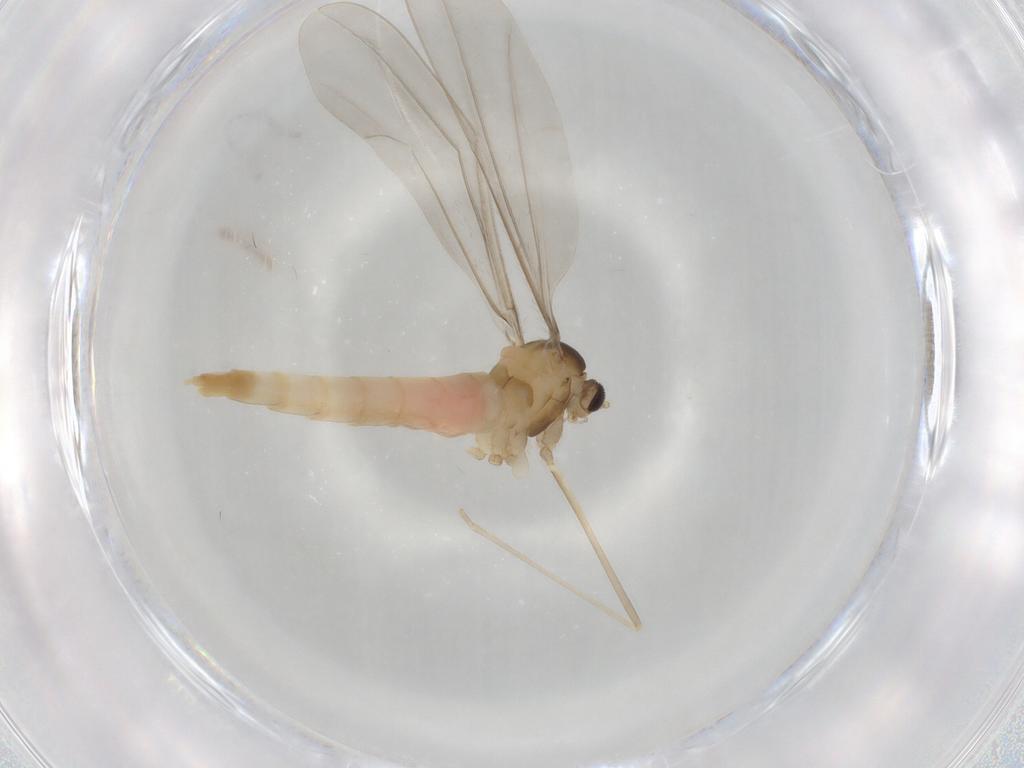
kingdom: Animalia
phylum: Arthropoda
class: Insecta
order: Diptera
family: Cecidomyiidae
